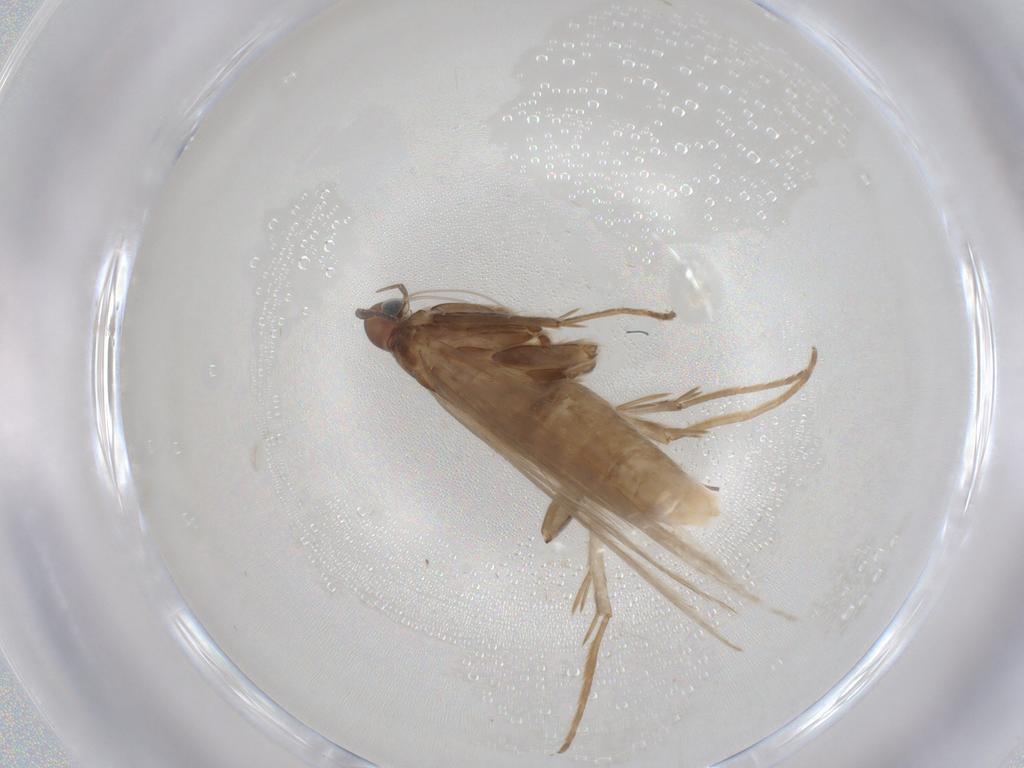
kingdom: Animalia
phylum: Arthropoda
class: Insecta
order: Lepidoptera
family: Coleophoridae
